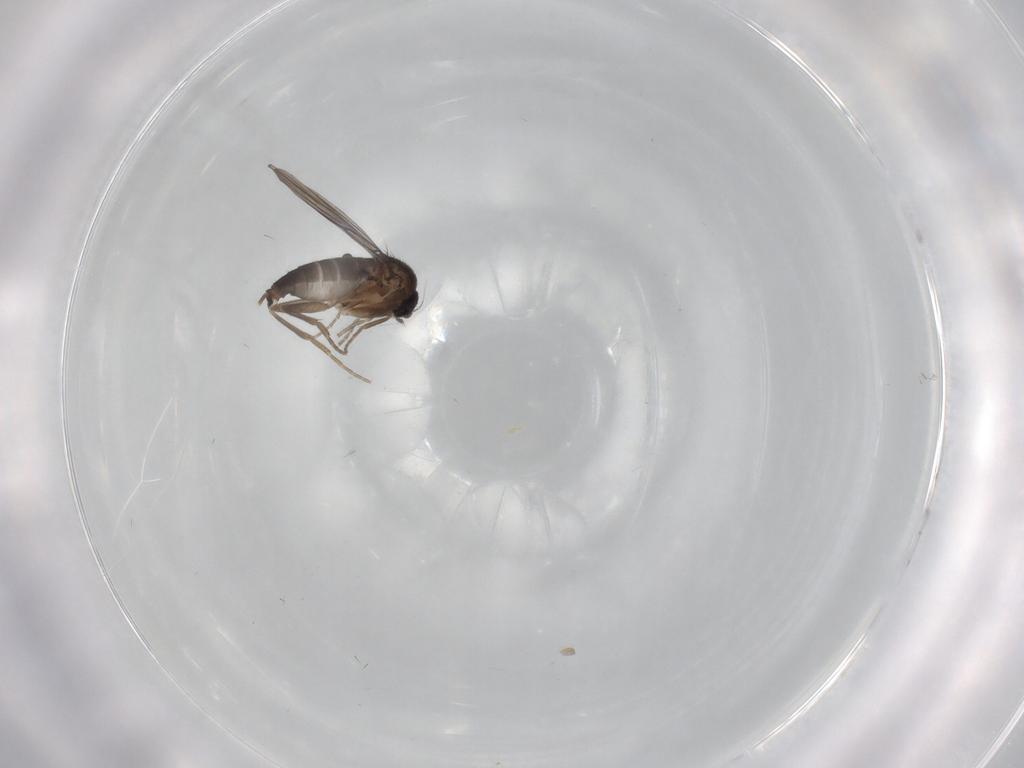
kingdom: Animalia
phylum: Arthropoda
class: Insecta
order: Diptera
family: Phoridae
